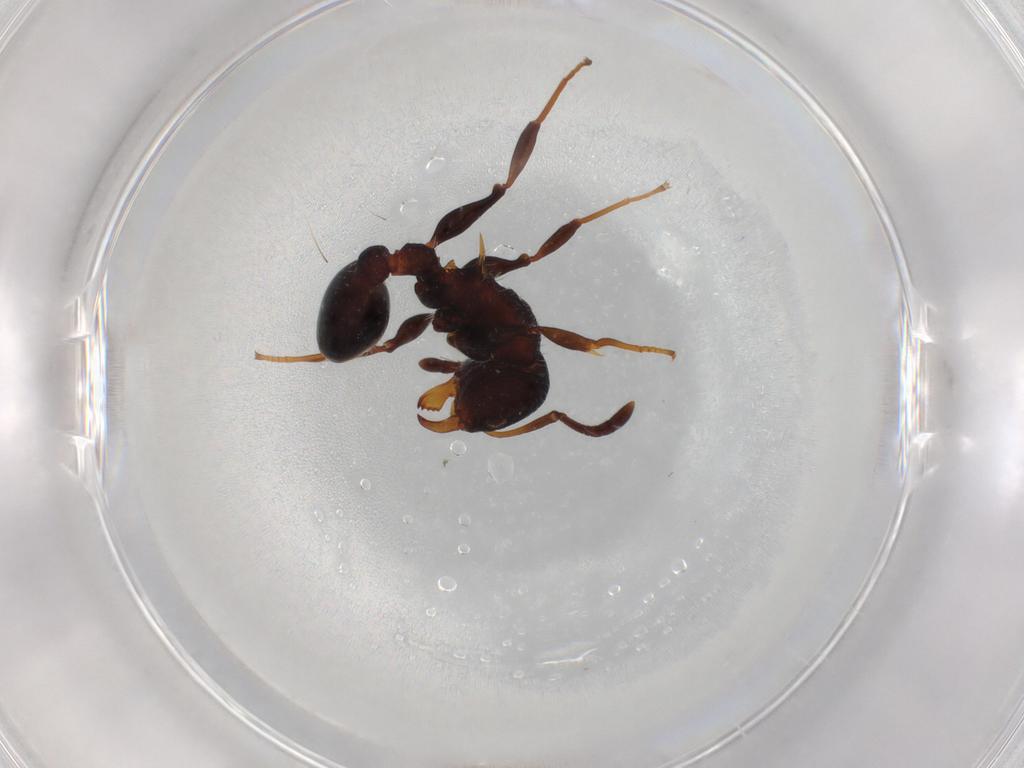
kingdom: Animalia
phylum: Arthropoda
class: Insecta
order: Hymenoptera
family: Formicidae
